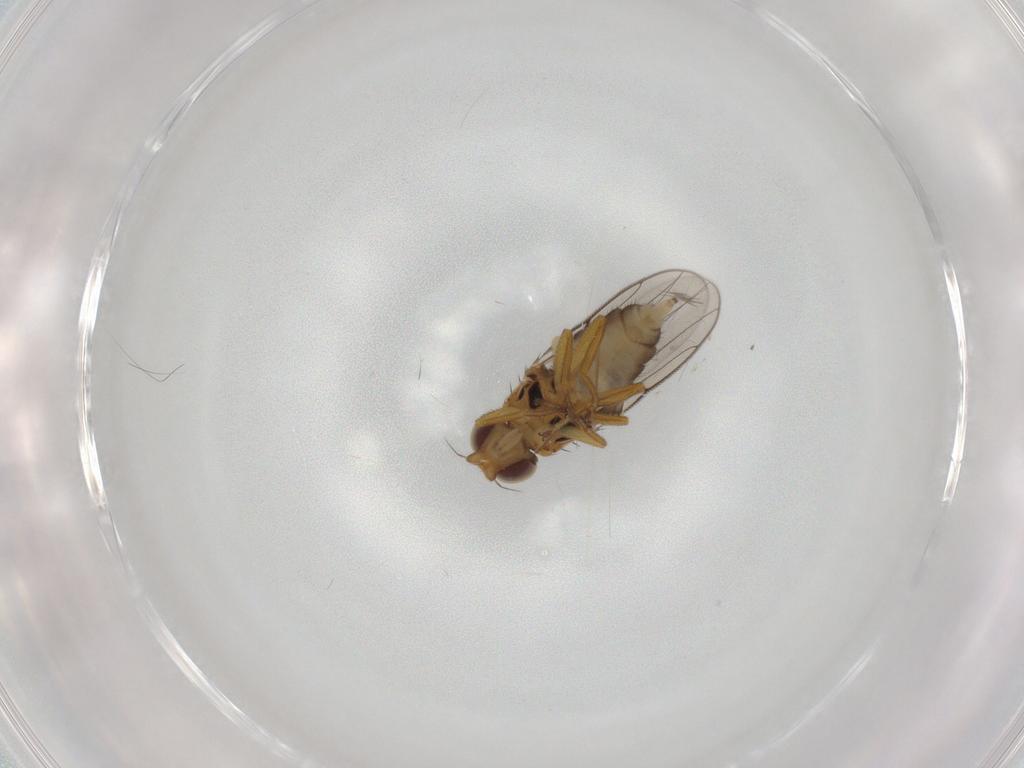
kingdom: Animalia
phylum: Arthropoda
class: Insecta
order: Diptera
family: Chloropidae
